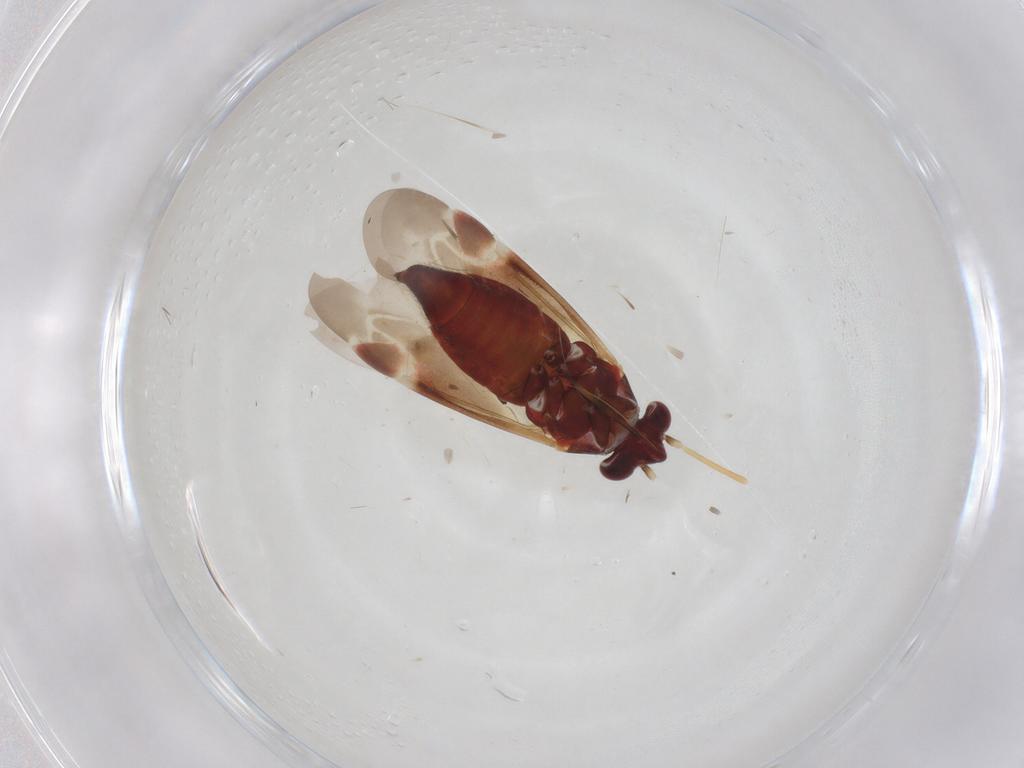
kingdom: Animalia
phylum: Arthropoda
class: Insecta
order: Hemiptera
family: Miridae
